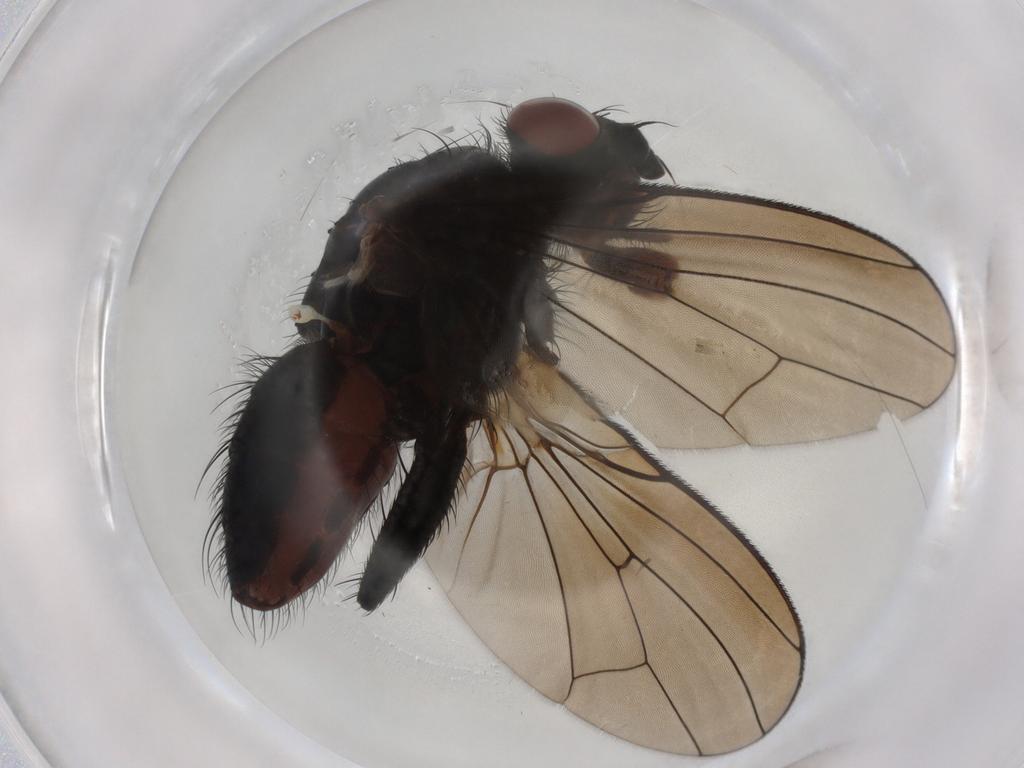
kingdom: Animalia
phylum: Arthropoda
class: Insecta
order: Diptera
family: Anthomyiidae
